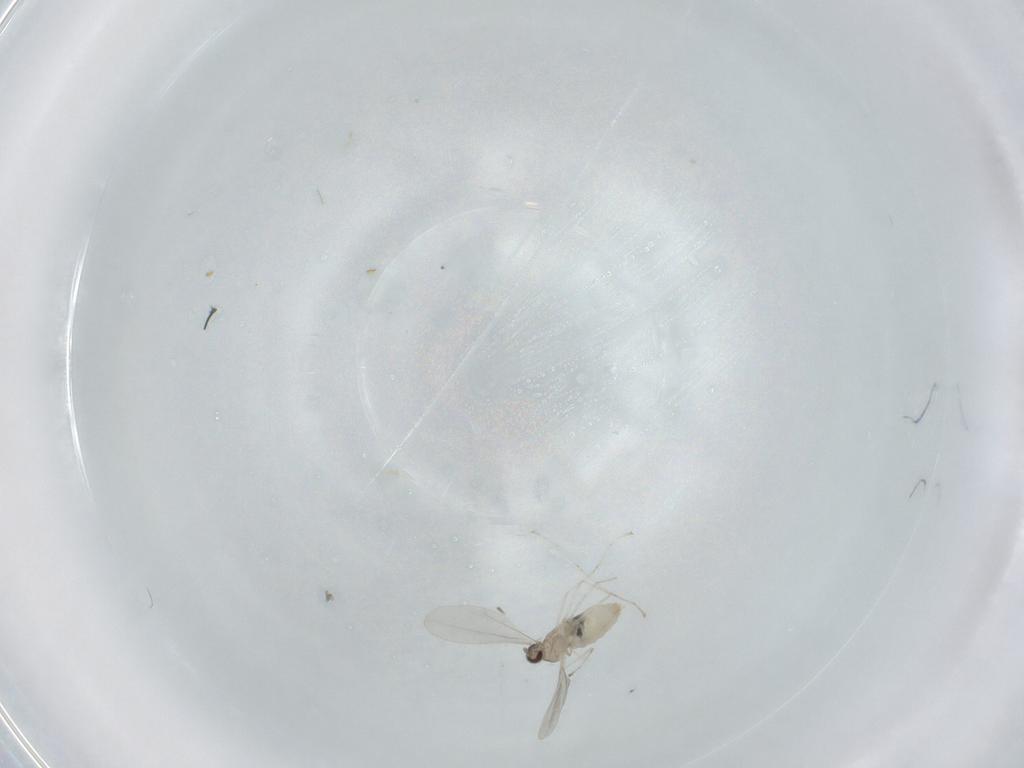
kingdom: Animalia
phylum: Arthropoda
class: Insecta
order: Diptera
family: Cecidomyiidae
